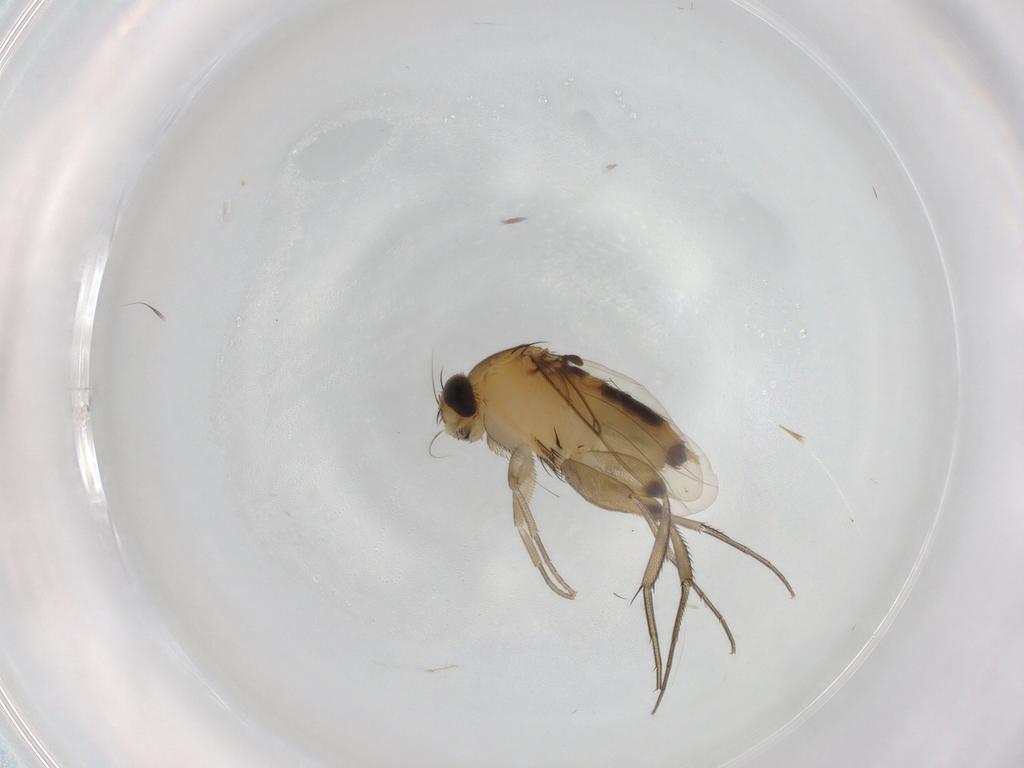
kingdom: Animalia
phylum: Arthropoda
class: Insecta
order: Diptera
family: Phoridae
